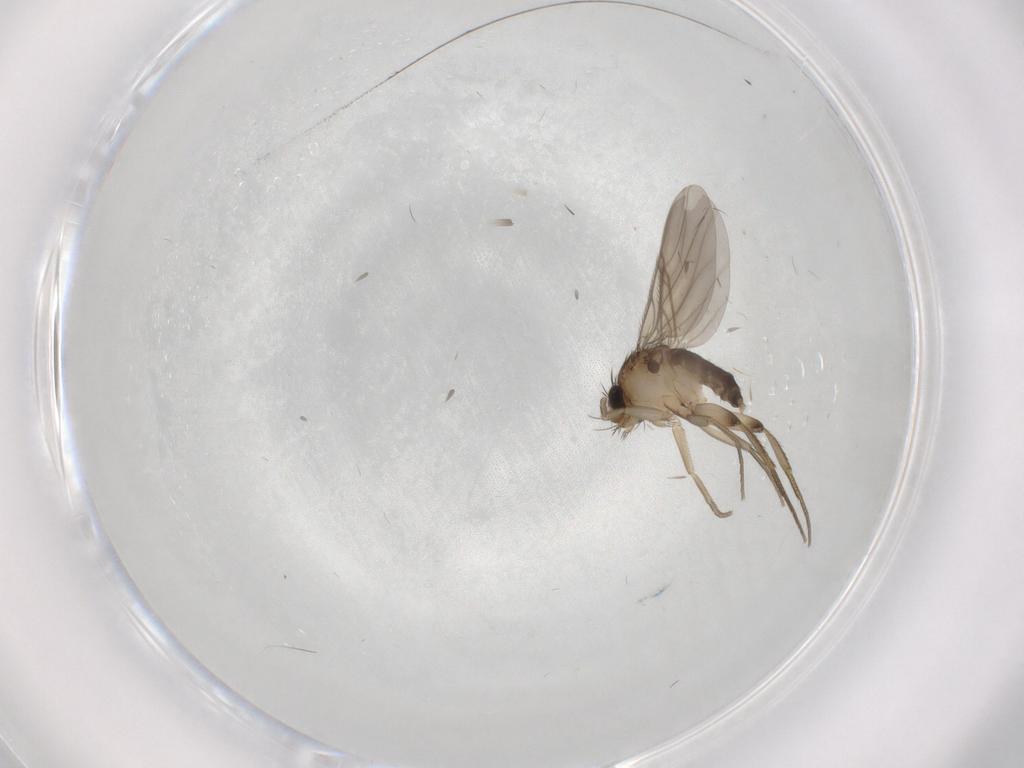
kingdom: Animalia
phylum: Arthropoda
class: Insecta
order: Diptera
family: Phoridae
